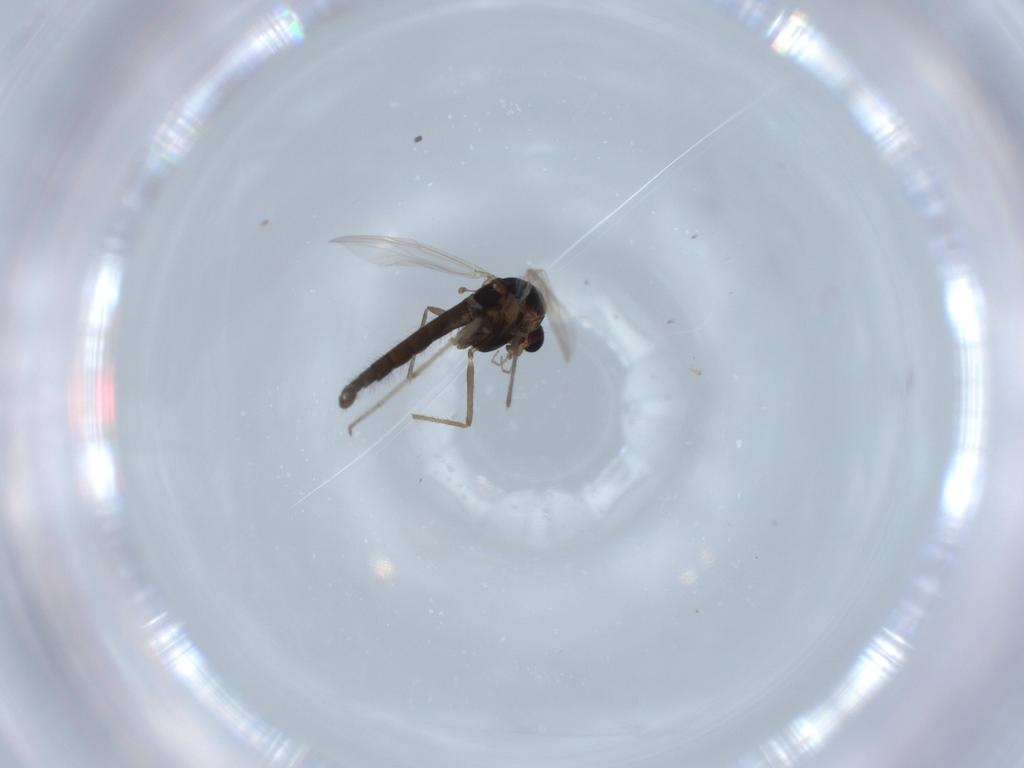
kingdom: Animalia
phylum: Arthropoda
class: Insecta
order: Diptera
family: Chironomidae
